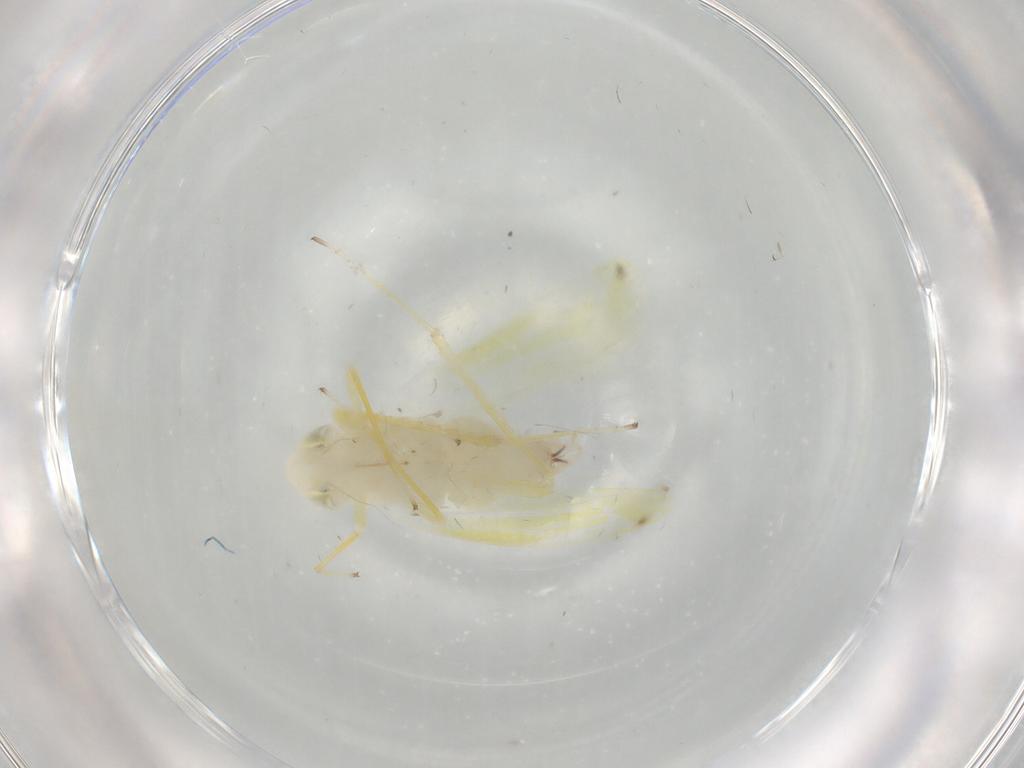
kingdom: Animalia
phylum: Arthropoda
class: Insecta
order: Hemiptera
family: Cicadellidae
